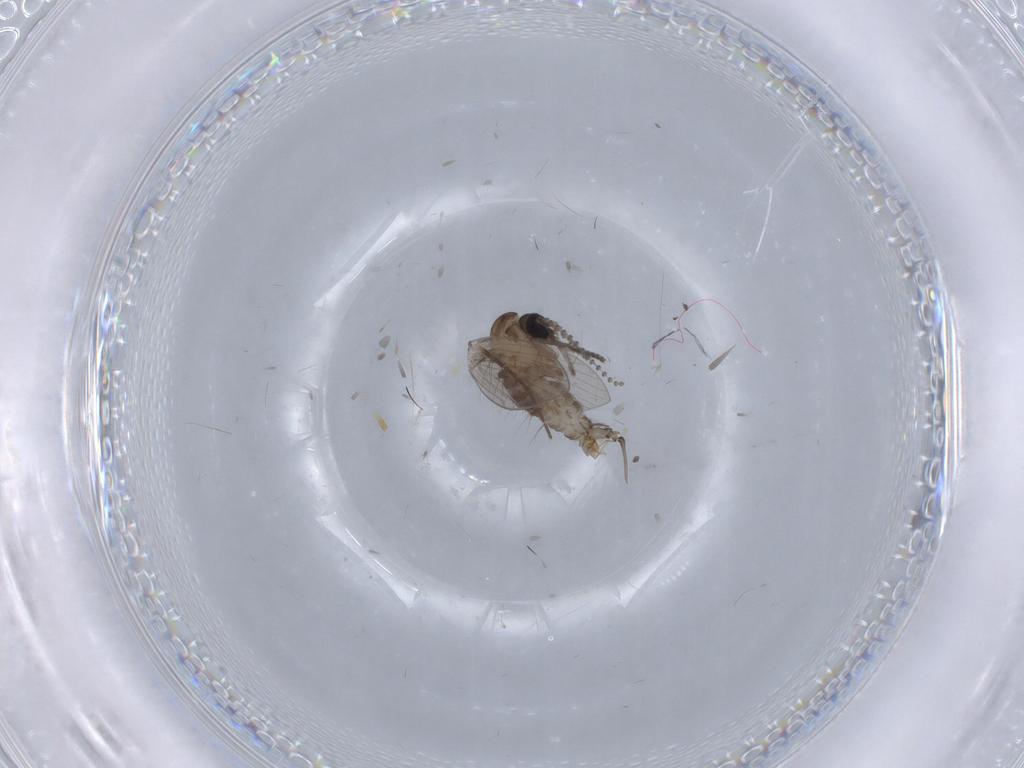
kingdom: Animalia
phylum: Arthropoda
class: Insecta
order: Diptera
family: Psychodidae
